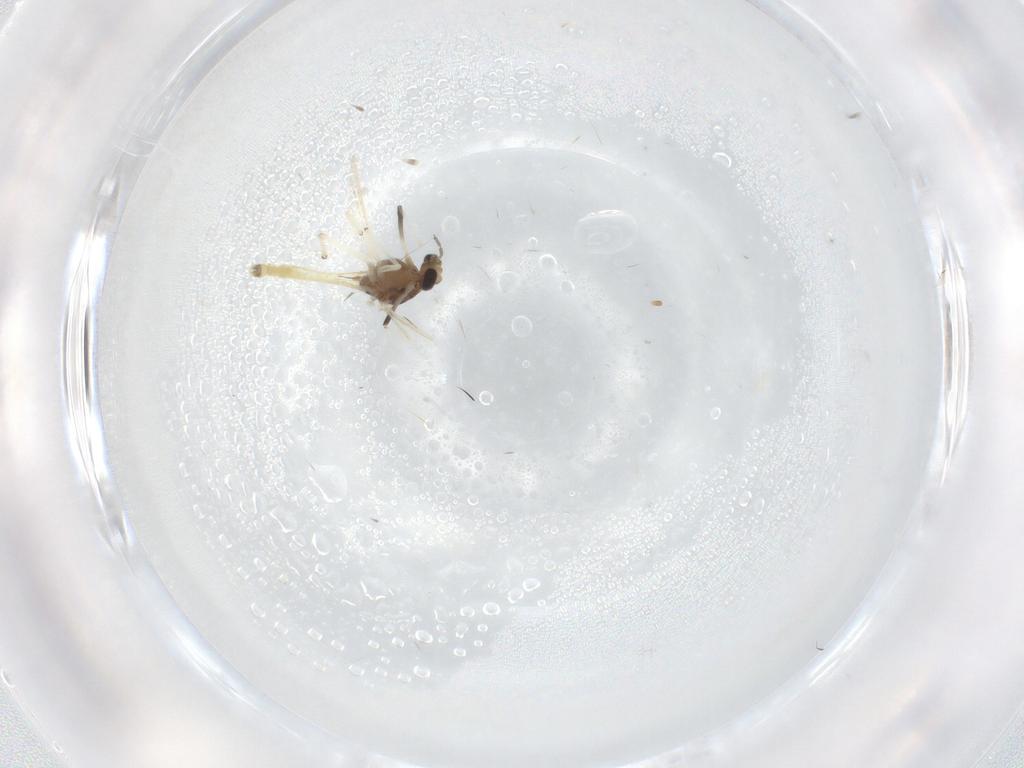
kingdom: Animalia
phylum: Arthropoda
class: Insecta
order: Diptera
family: Chironomidae
